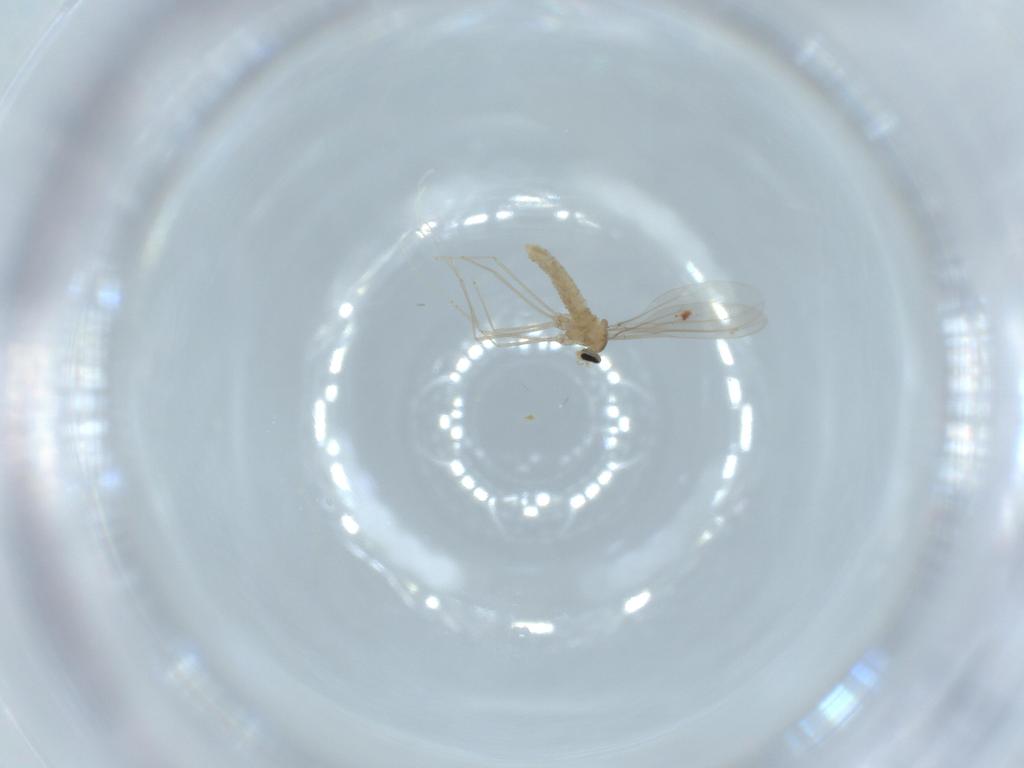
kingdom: Animalia
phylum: Arthropoda
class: Insecta
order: Diptera
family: Cecidomyiidae
